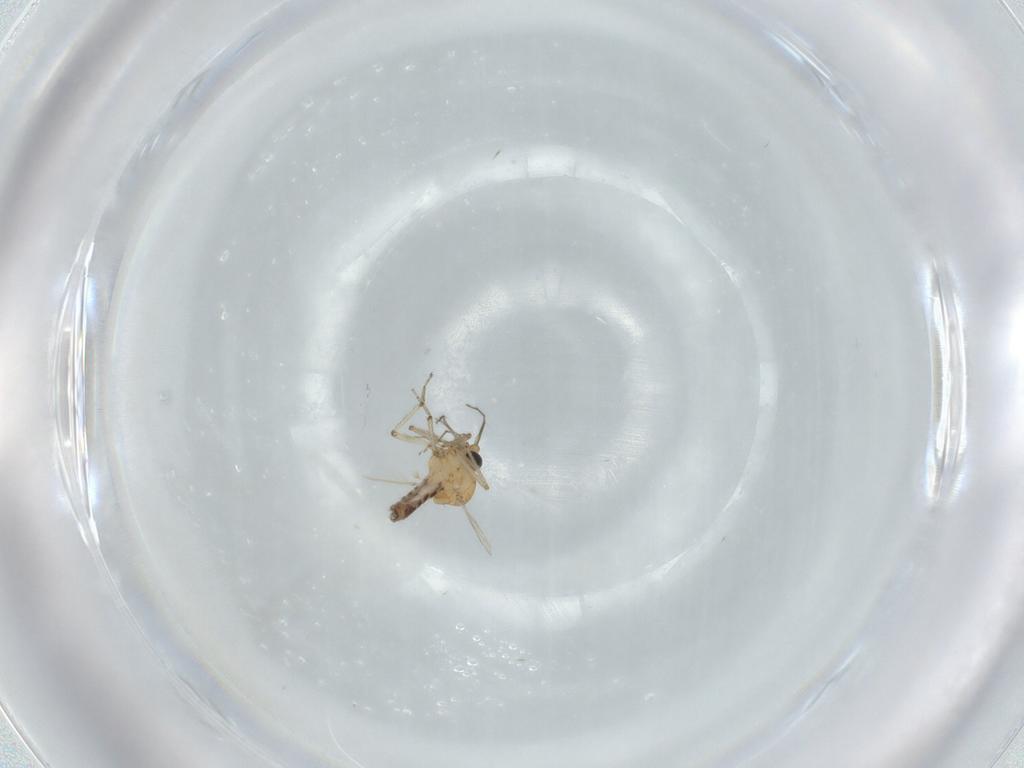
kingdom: Animalia
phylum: Arthropoda
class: Insecta
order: Diptera
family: Ceratopogonidae
